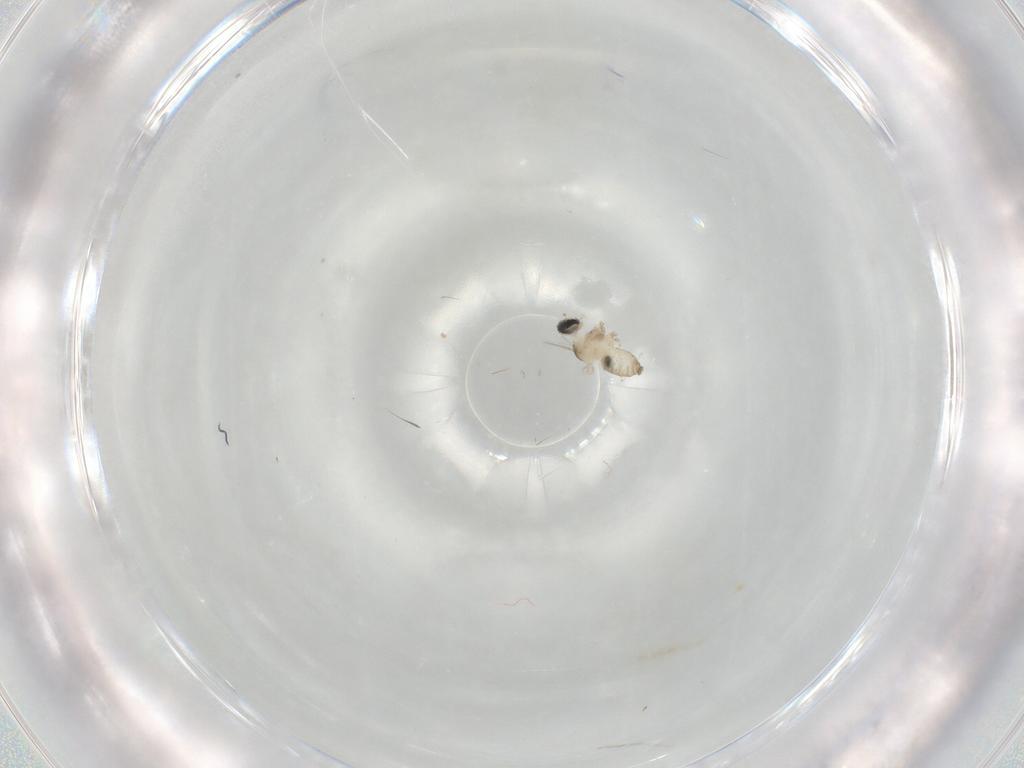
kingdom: Animalia
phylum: Arthropoda
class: Insecta
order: Diptera
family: Cecidomyiidae
